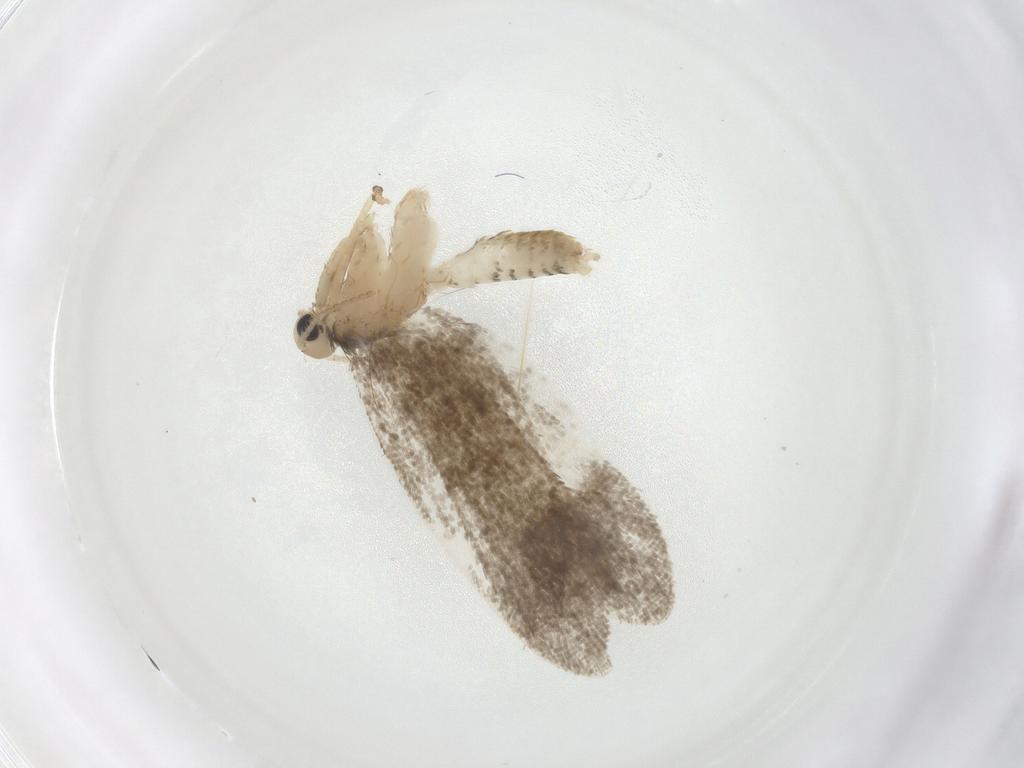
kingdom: Animalia
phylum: Arthropoda
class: Insecta
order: Lepidoptera
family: Psychidae
